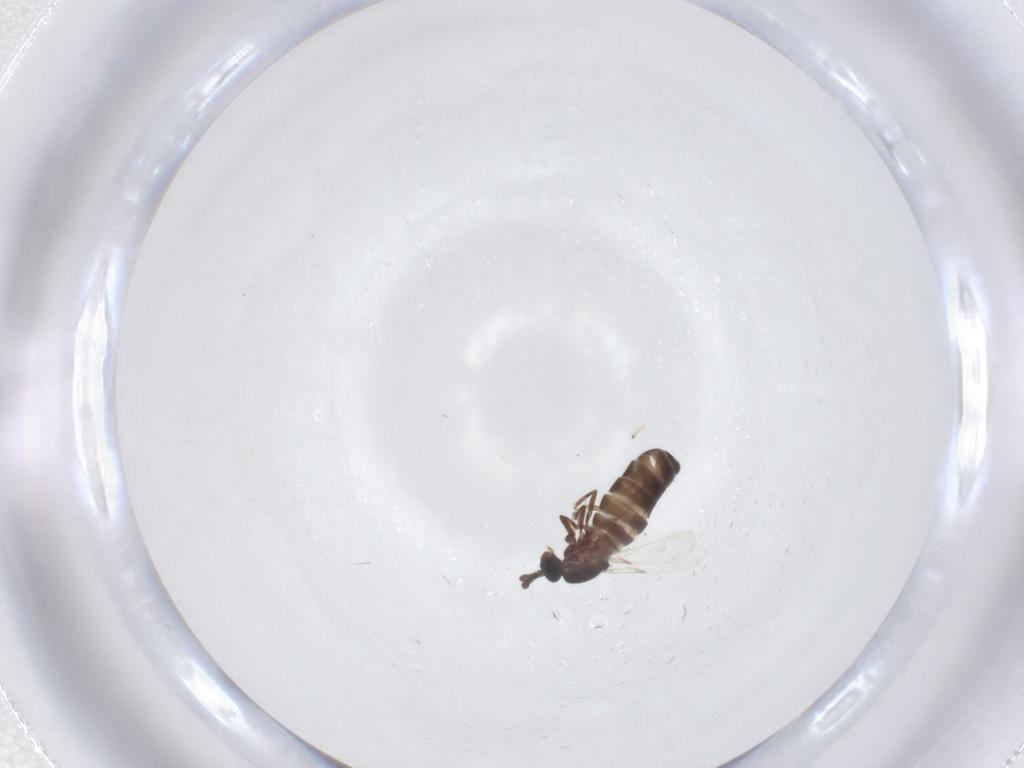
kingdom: Animalia
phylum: Arthropoda
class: Insecta
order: Diptera
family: Scatopsidae
